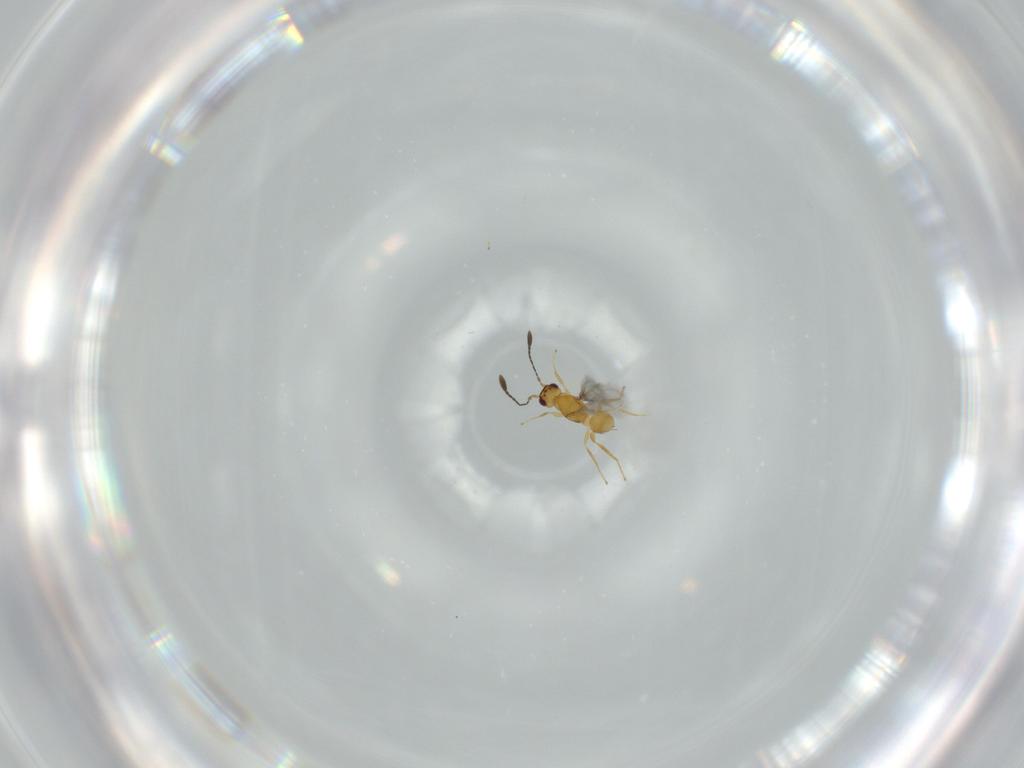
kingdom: Animalia
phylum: Arthropoda
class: Insecta
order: Hymenoptera
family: Mymaridae
